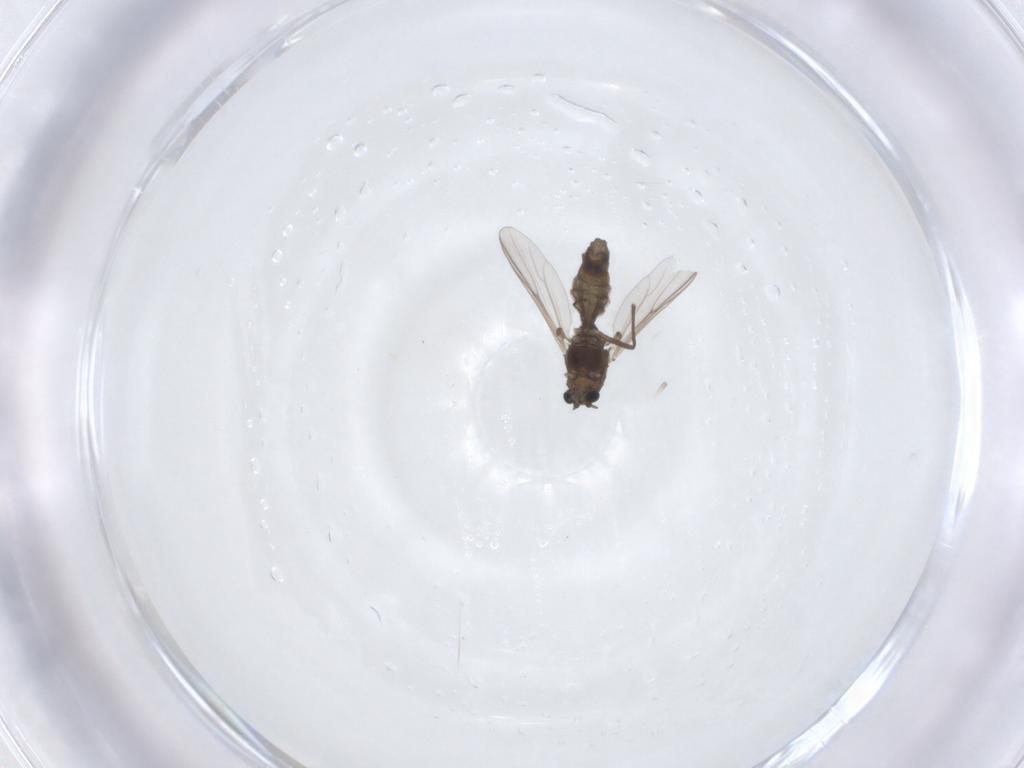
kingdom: Animalia
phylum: Arthropoda
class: Insecta
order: Diptera
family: Chironomidae
